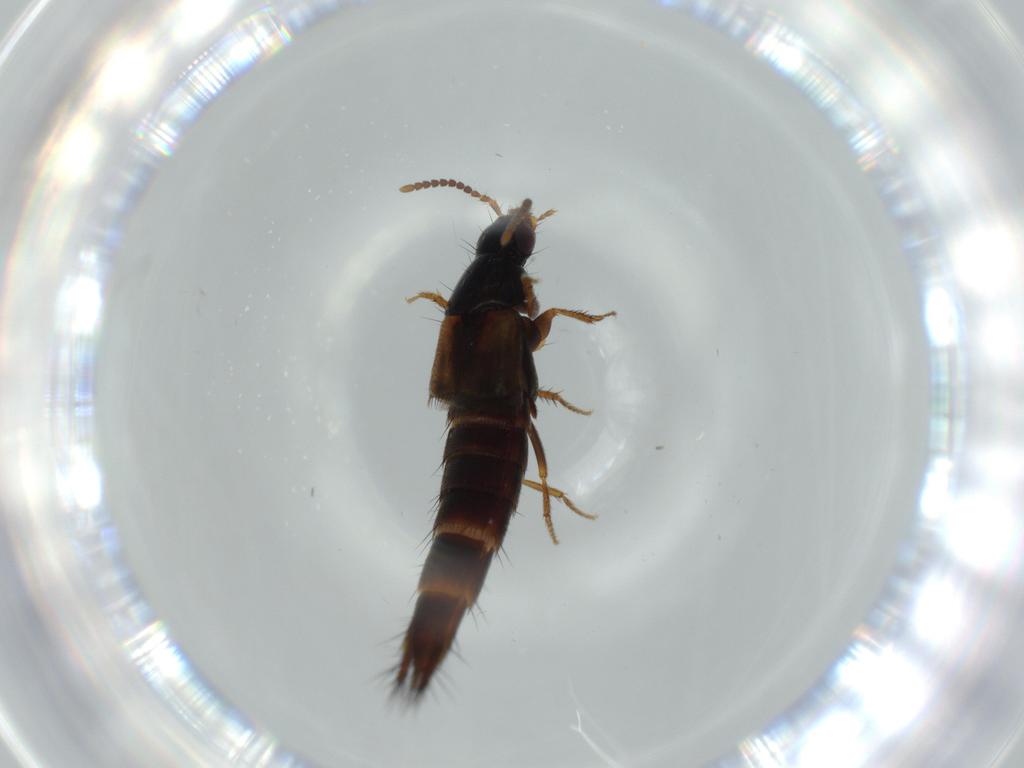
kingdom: Animalia
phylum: Arthropoda
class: Insecta
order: Coleoptera
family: Staphylinidae
